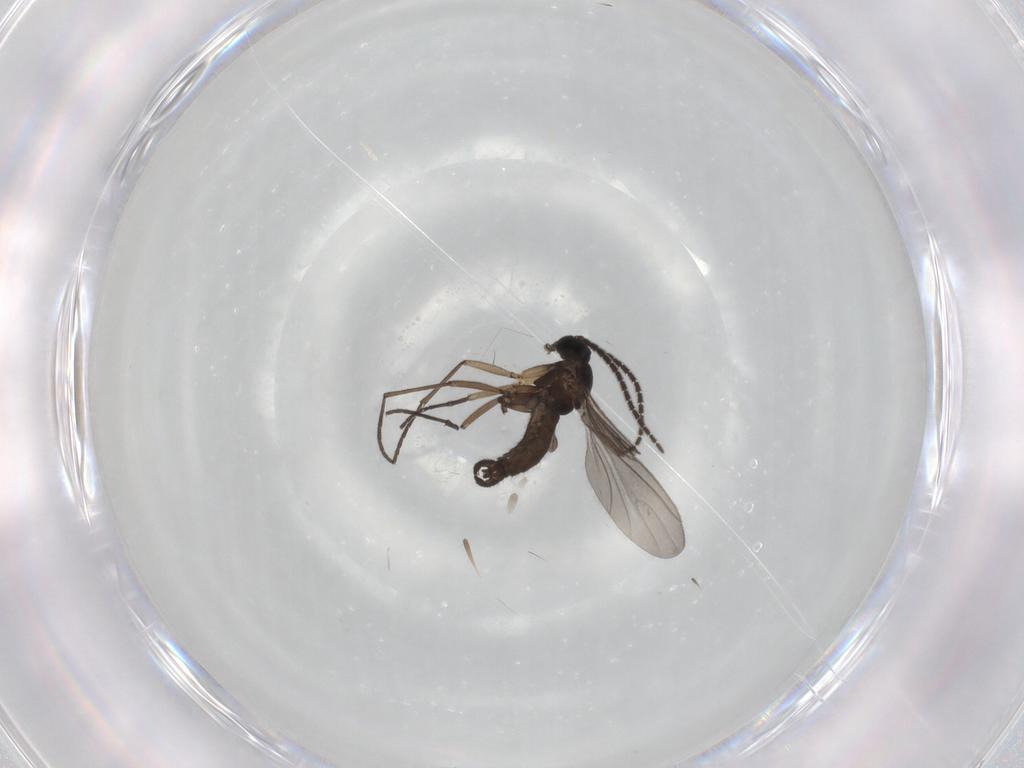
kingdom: Animalia
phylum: Arthropoda
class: Insecta
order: Diptera
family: Sciaridae
